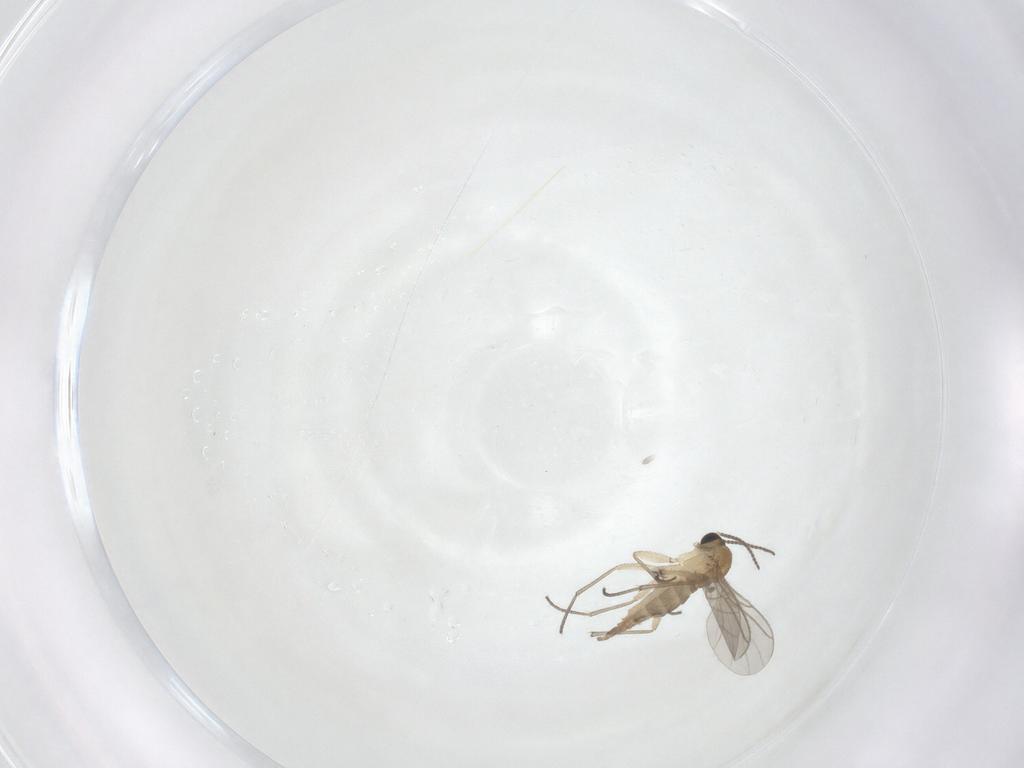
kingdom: Animalia
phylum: Arthropoda
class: Insecta
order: Diptera
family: Sciaridae
